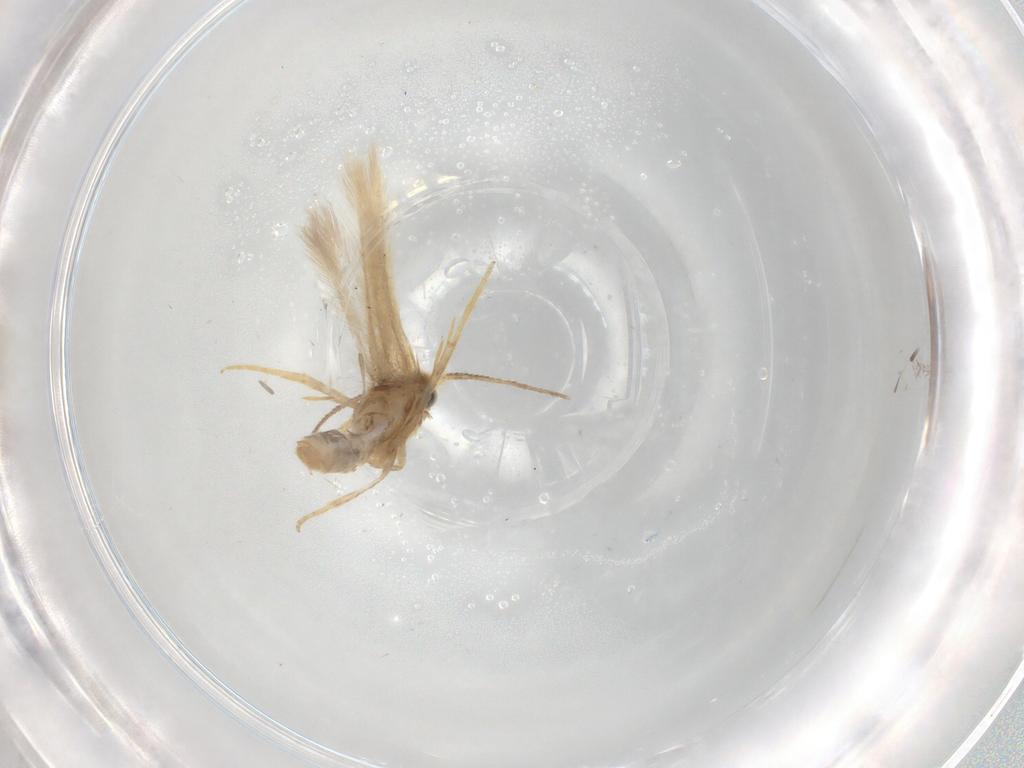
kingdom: Animalia
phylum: Arthropoda
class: Insecta
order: Lepidoptera
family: Nepticulidae
